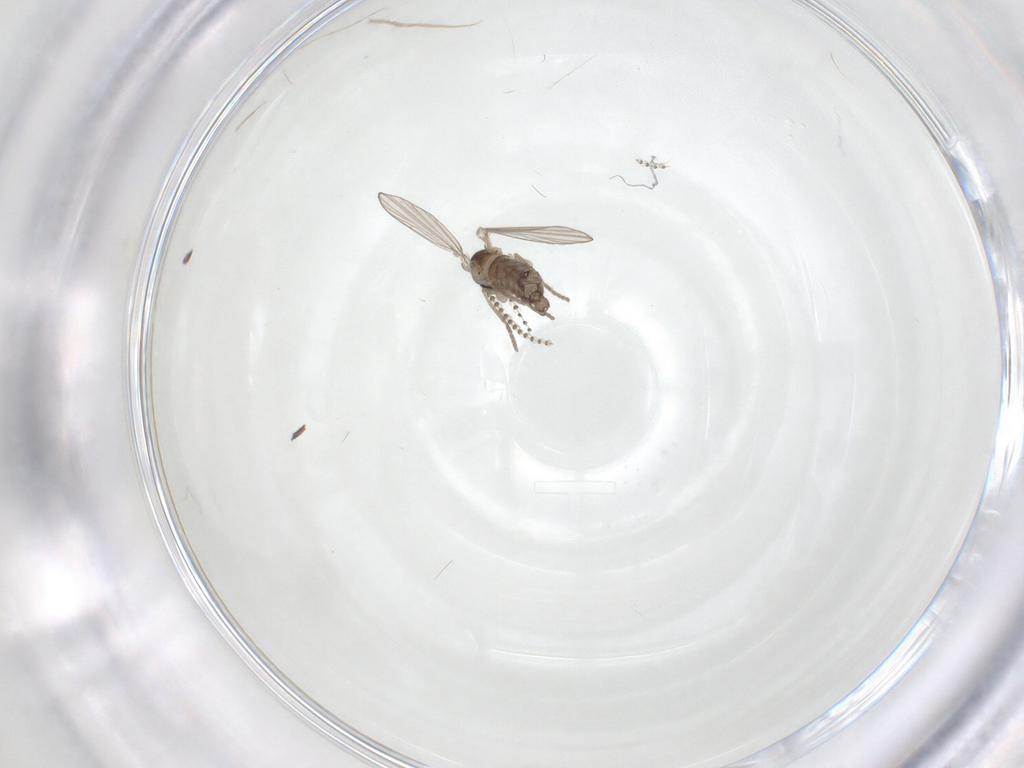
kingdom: Animalia
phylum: Arthropoda
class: Insecta
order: Diptera
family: Psychodidae
